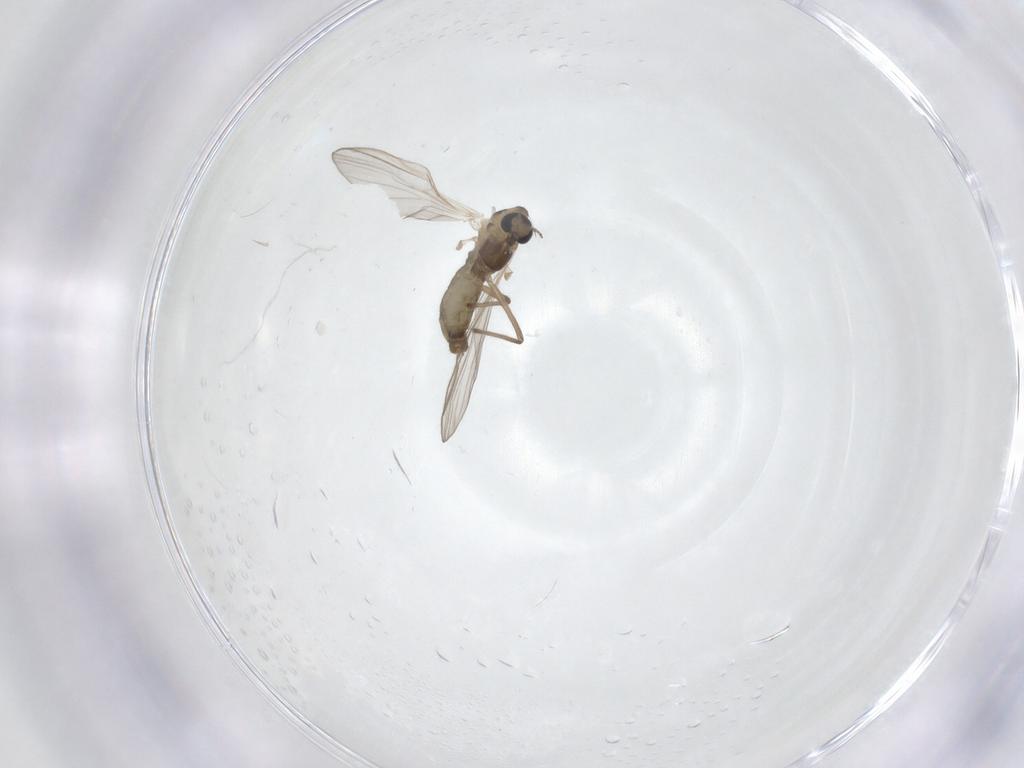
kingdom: Animalia
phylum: Arthropoda
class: Insecta
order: Diptera
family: Chironomidae
